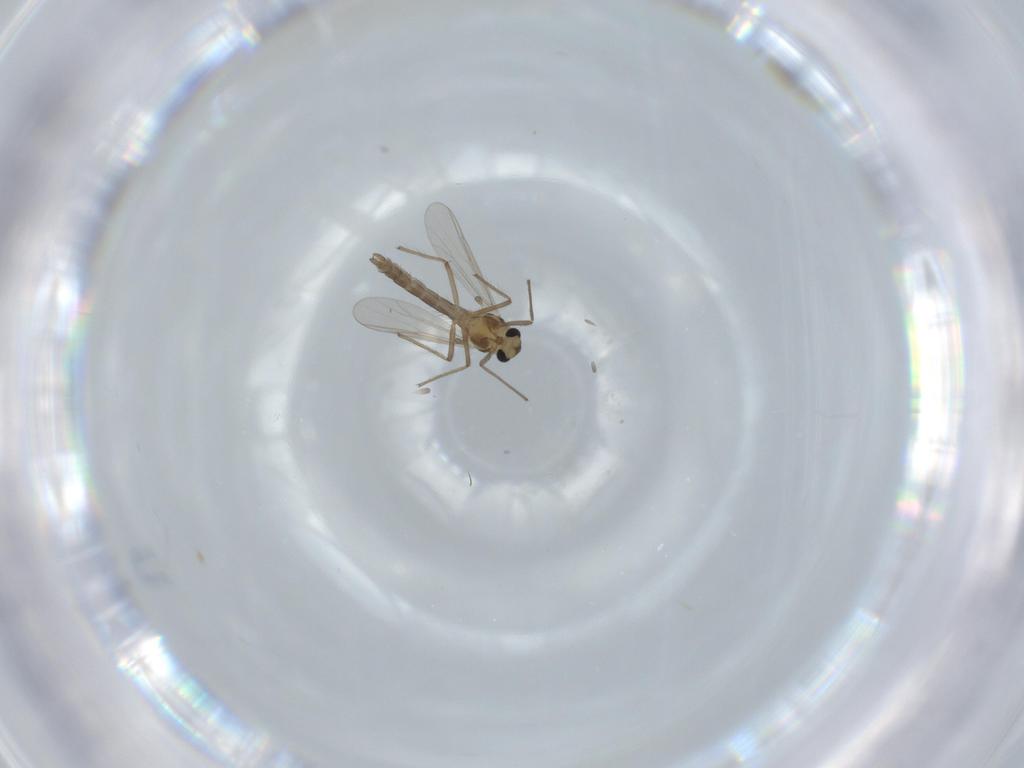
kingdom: Animalia
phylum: Arthropoda
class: Insecta
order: Diptera
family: Chironomidae
